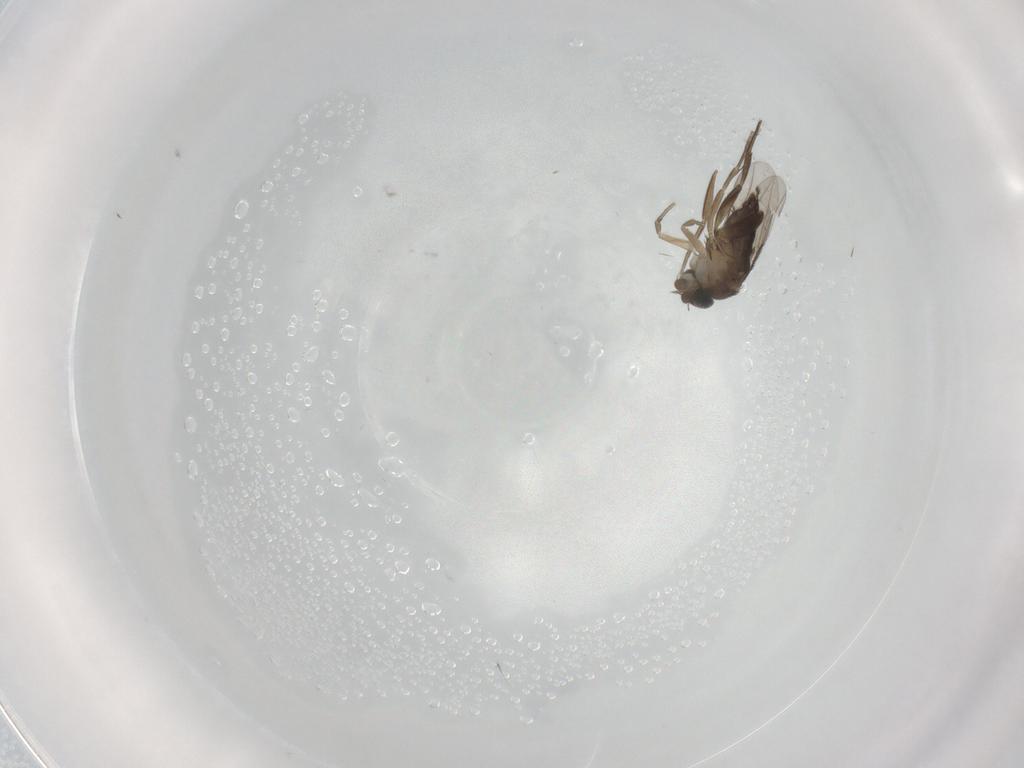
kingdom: Animalia
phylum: Arthropoda
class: Insecta
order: Diptera
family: Phoridae
